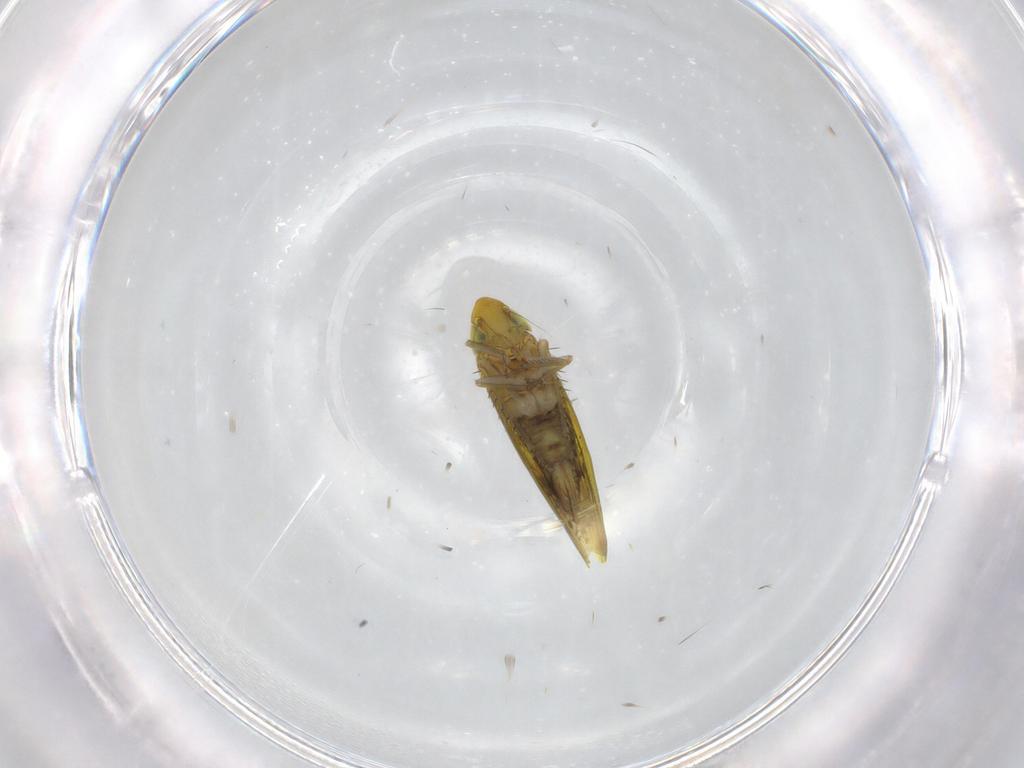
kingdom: Animalia
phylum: Arthropoda
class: Insecta
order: Hemiptera
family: Cicadellidae
